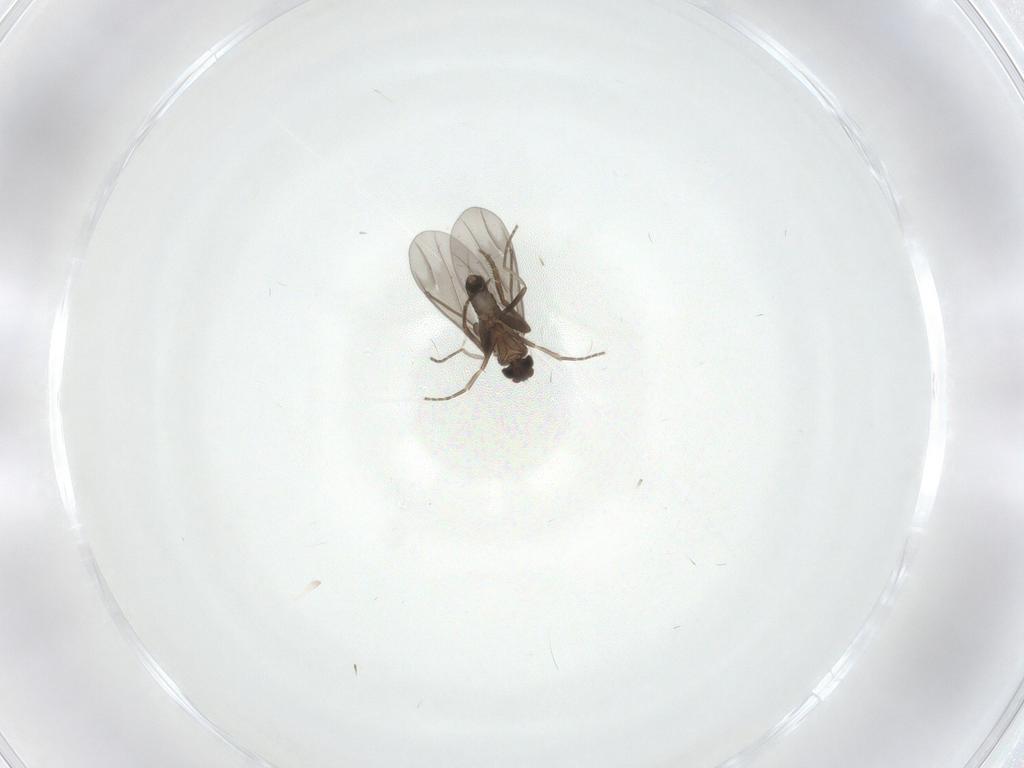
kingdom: Animalia
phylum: Arthropoda
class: Insecta
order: Diptera
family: Phoridae
